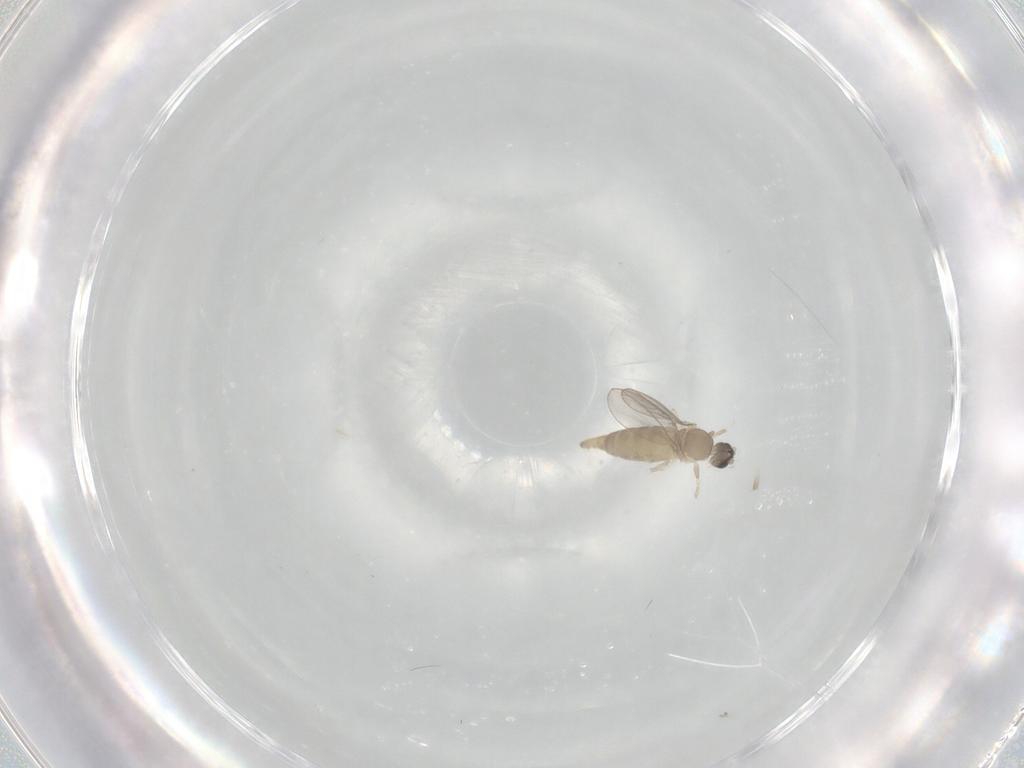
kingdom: Animalia
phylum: Arthropoda
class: Insecta
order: Diptera
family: Cecidomyiidae
